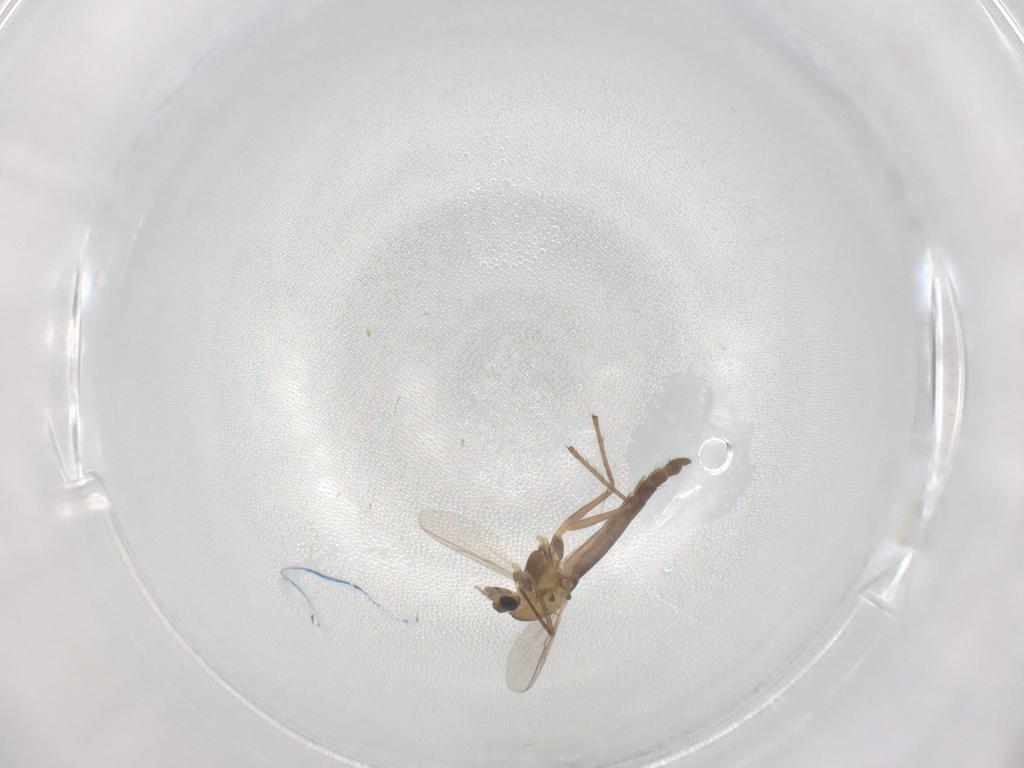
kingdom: Animalia
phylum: Arthropoda
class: Insecta
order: Diptera
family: Chironomidae
